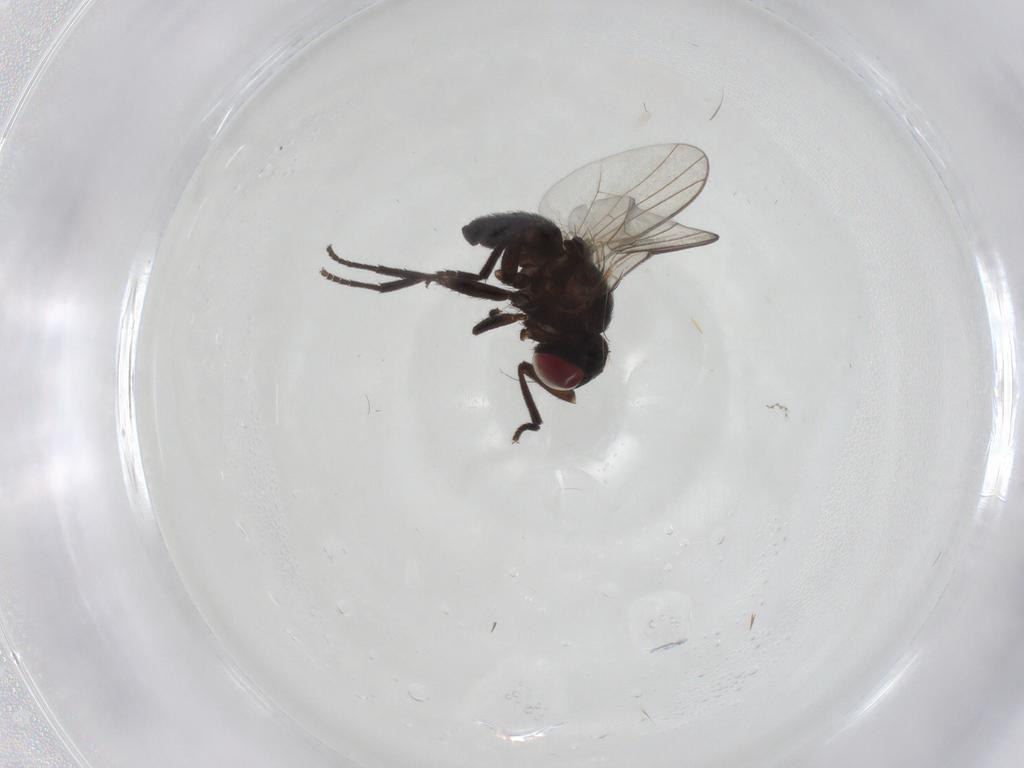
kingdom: Animalia
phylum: Arthropoda
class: Insecta
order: Diptera
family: Agromyzidae
